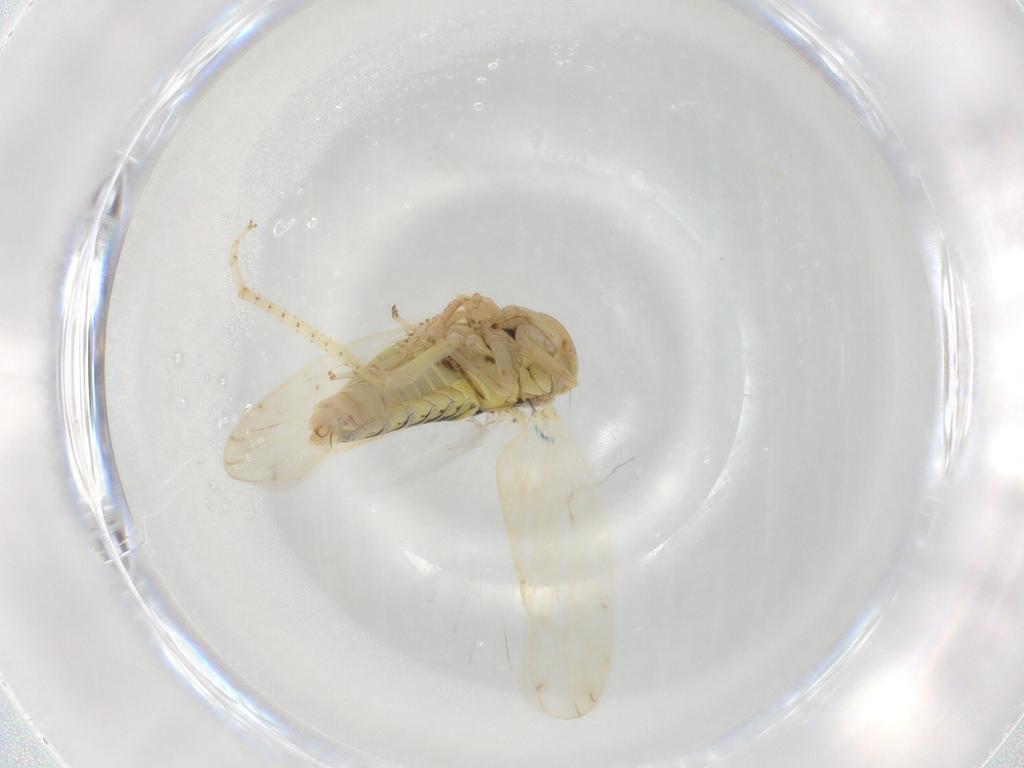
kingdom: Animalia
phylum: Arthropoda
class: Insecta
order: Hemiptera
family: Aphididae
